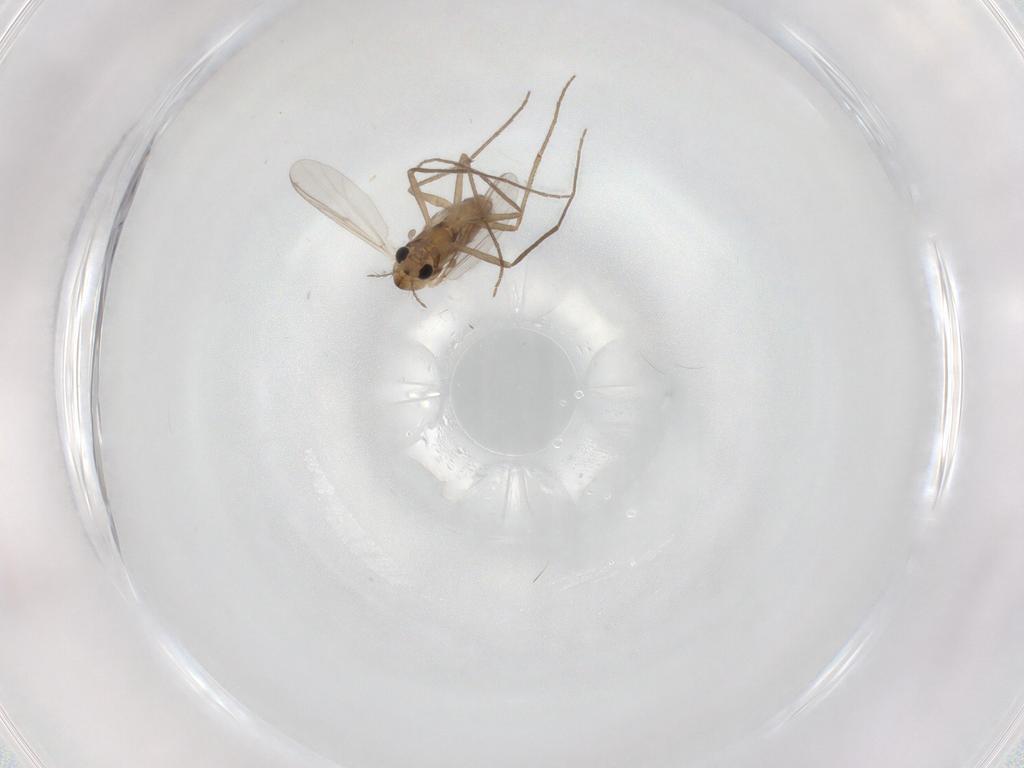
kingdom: Animalia
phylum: Arthropoda
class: Insecta
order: Diptera
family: Chironomidae
